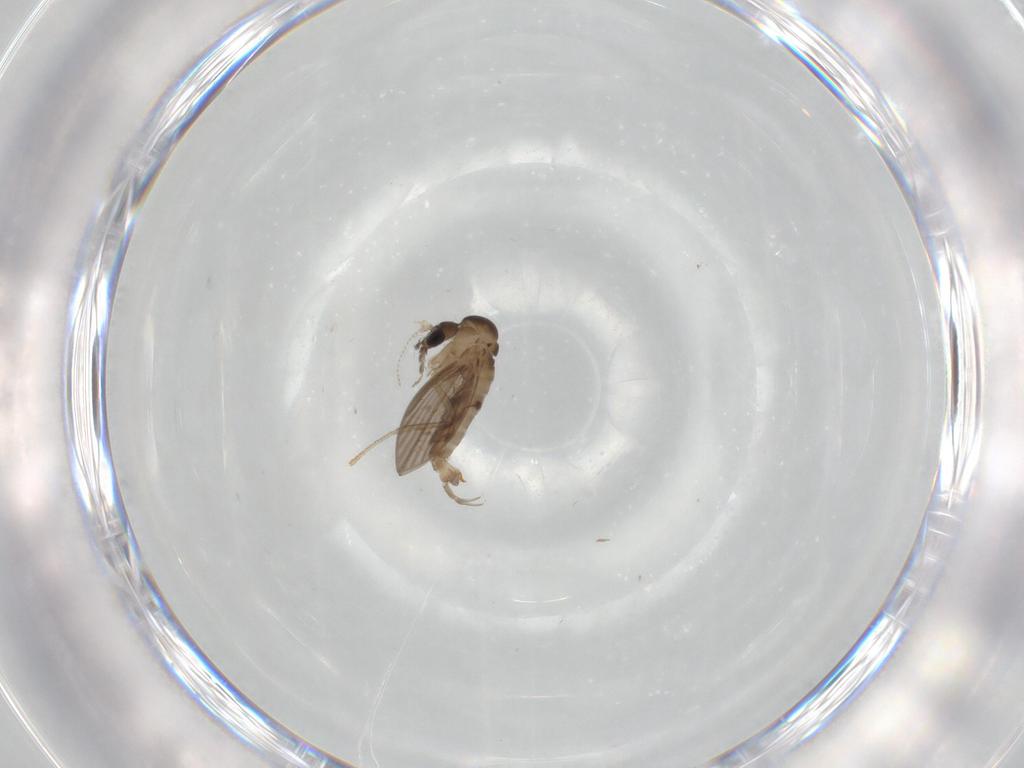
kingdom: Animalia
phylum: Arthropoda
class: Insecta
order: Diptera
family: Psychodidae
